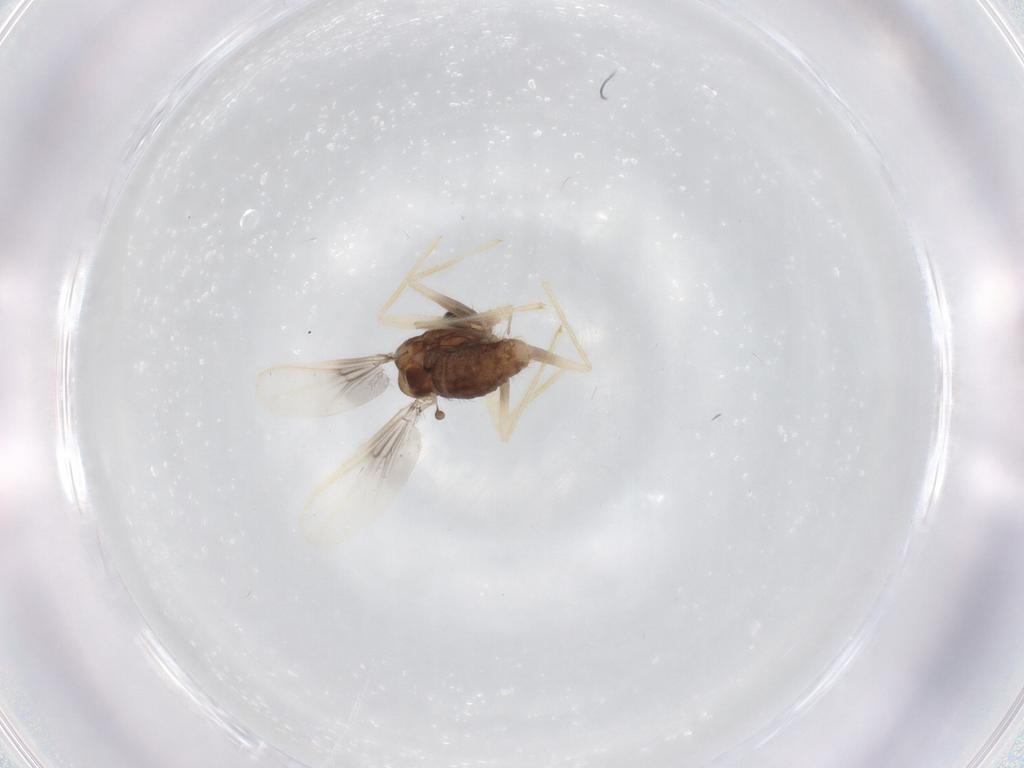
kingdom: Animalia
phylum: Arthropoda
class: Insecta
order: Diptera
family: Chironomidae
